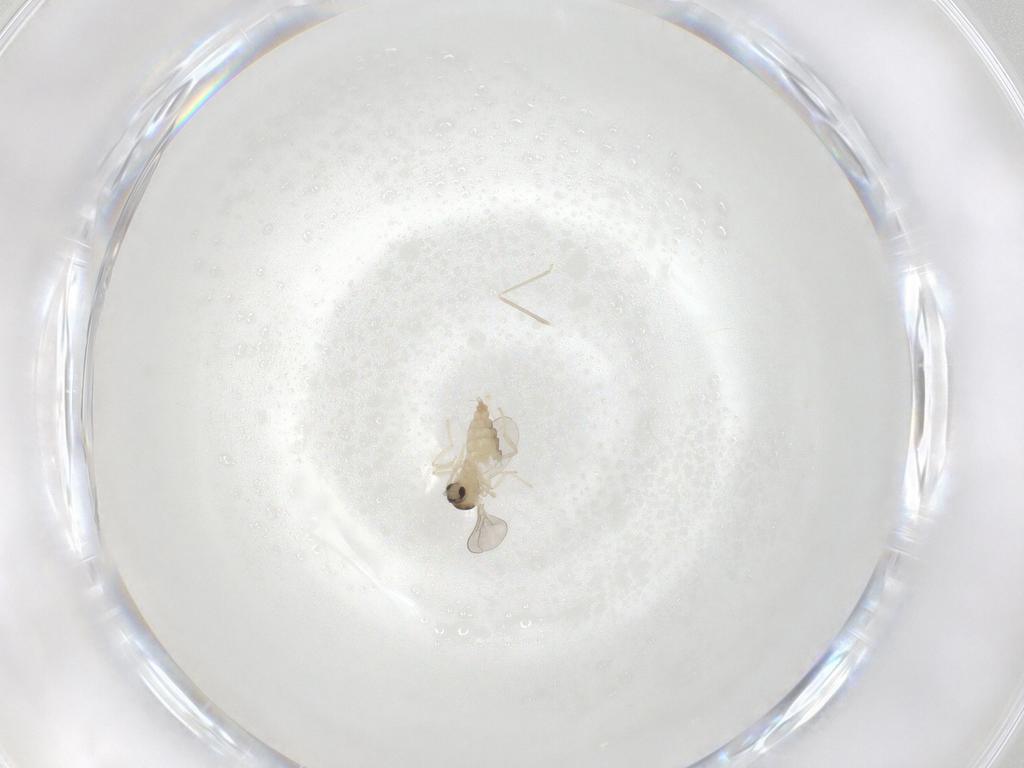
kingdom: Animalia
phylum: Arthropoda
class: Insecta
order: Diptera
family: Cecidomyiidae
